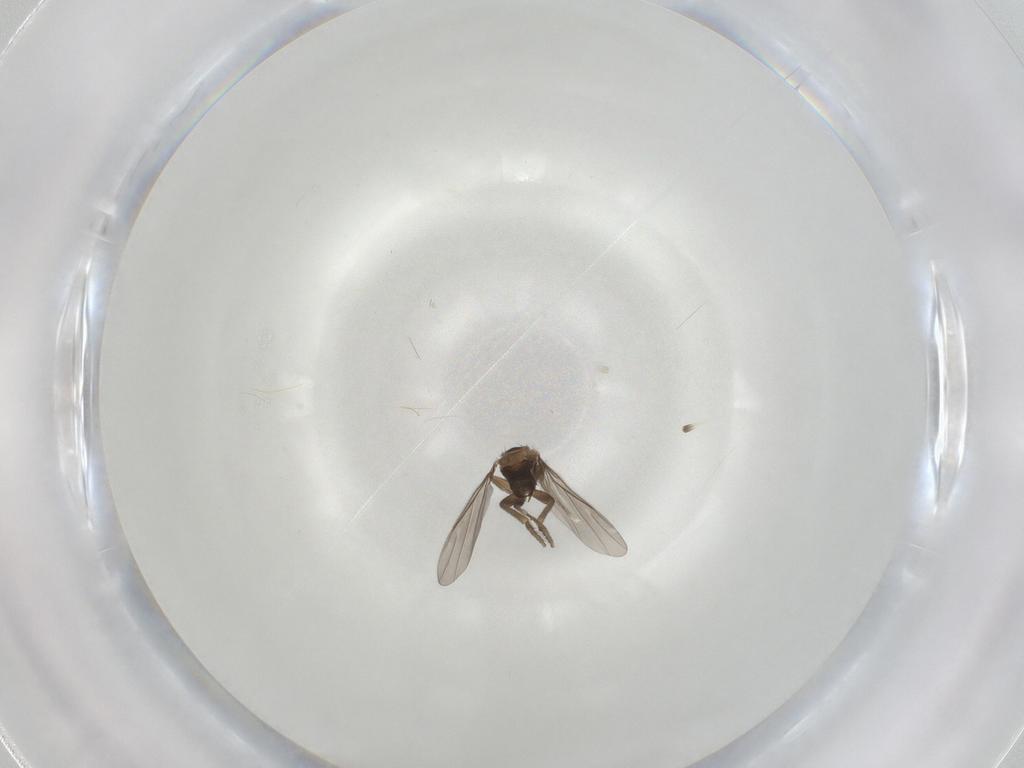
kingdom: Animalia
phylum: Arthropoda
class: Insecta
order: Diptera
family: Phoridae
